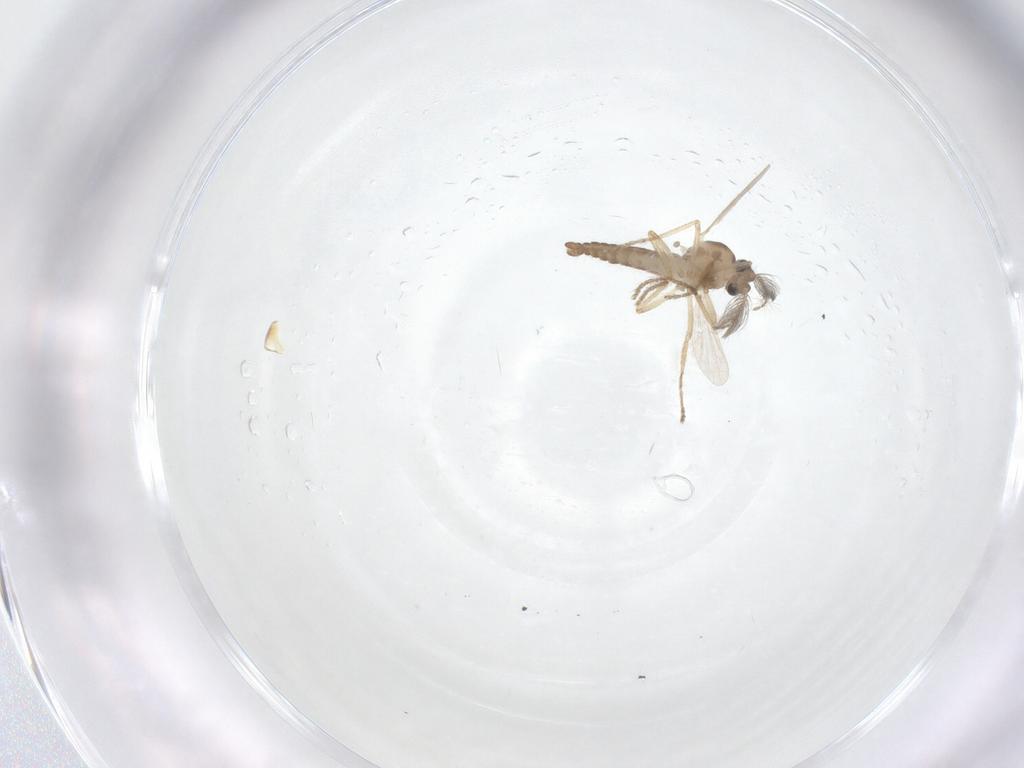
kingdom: Animalia
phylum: Arthropoda
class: Insecta
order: Diptera
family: Ceratopogonidae
